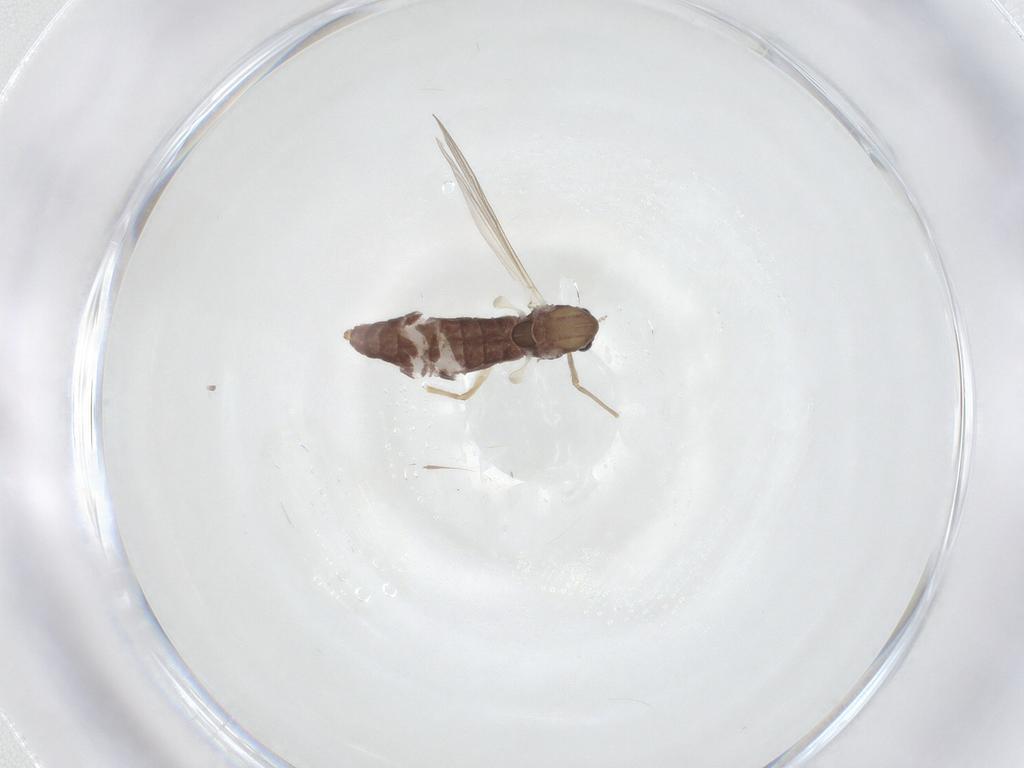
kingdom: Animalia
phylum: Arthropoda
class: Insecta
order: Diptera
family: Chironomidae
